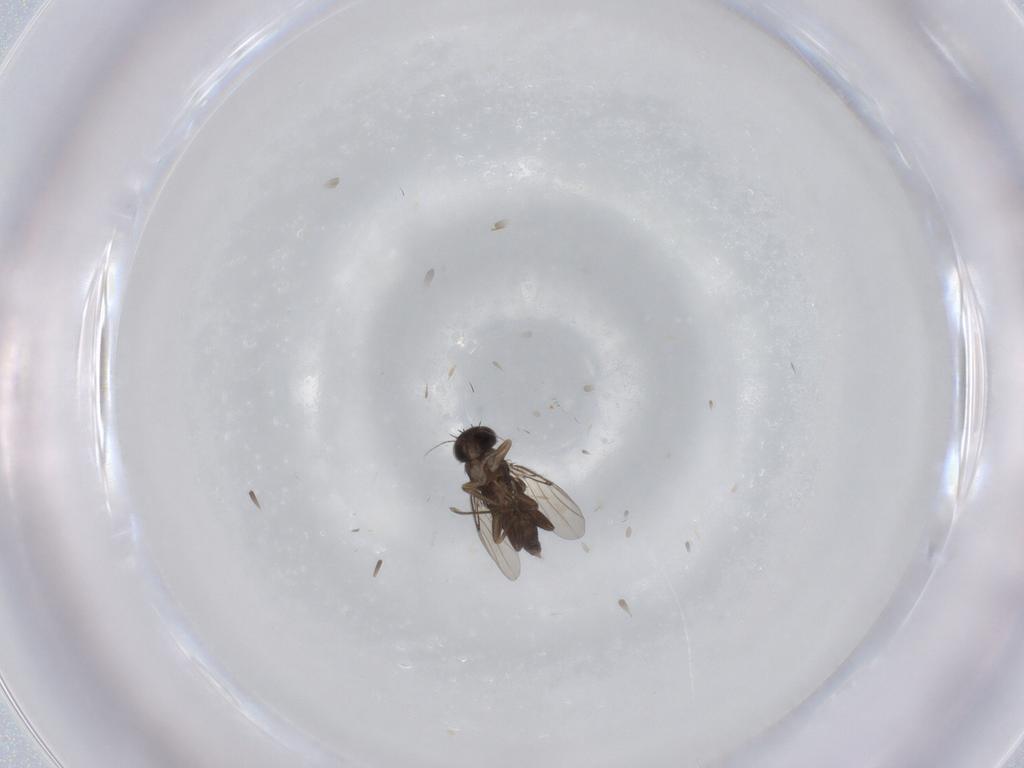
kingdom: Animalia
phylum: Arthropoda
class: Insecta
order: Diptera
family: Phoridae
